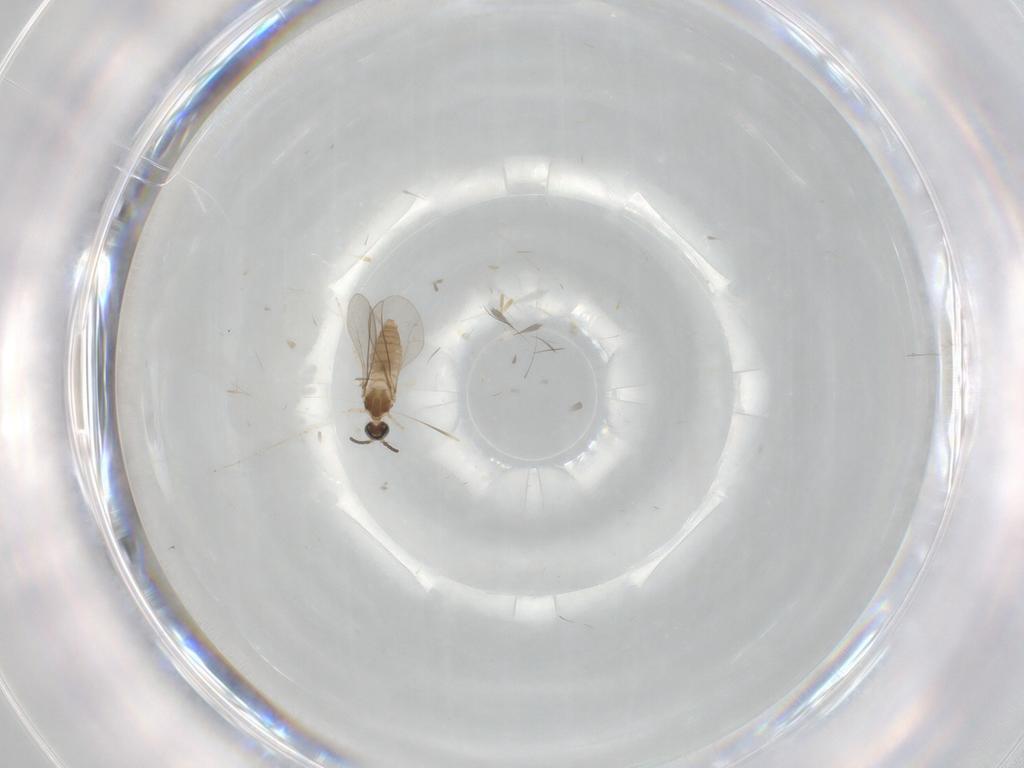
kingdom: Animalia
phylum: Arthropoda
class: Insecta
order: Diptera
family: Cecidomyiidae
